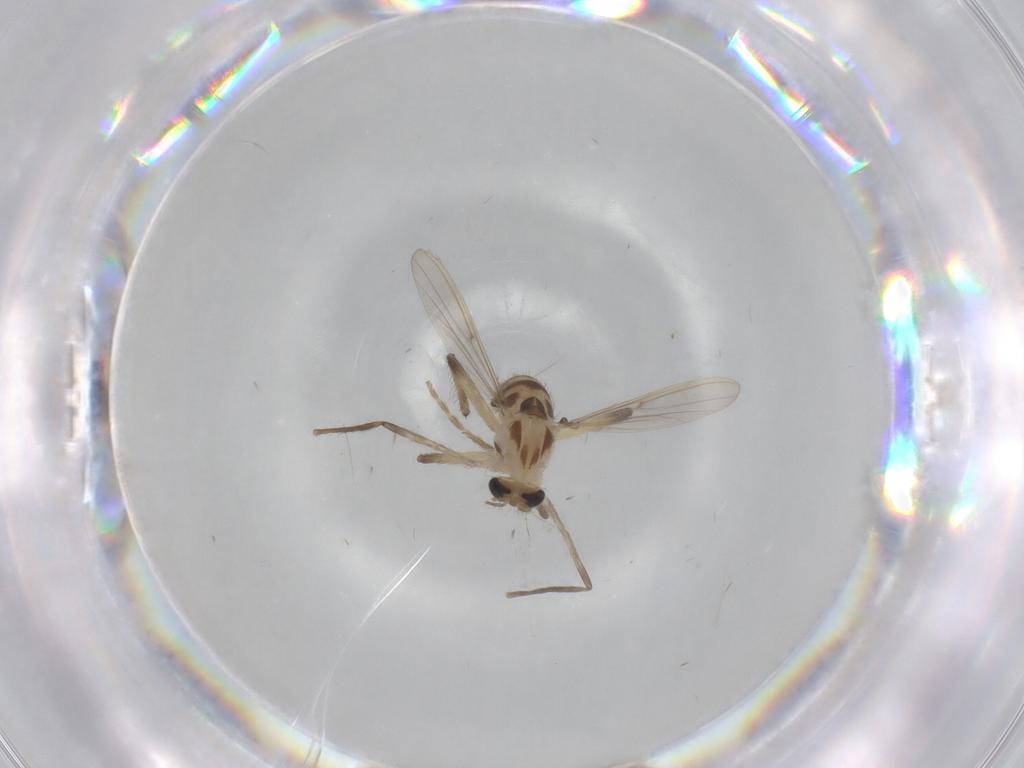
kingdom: Animalia
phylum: Arthropoda
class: Insecta
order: Diptera
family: Chironomidae
